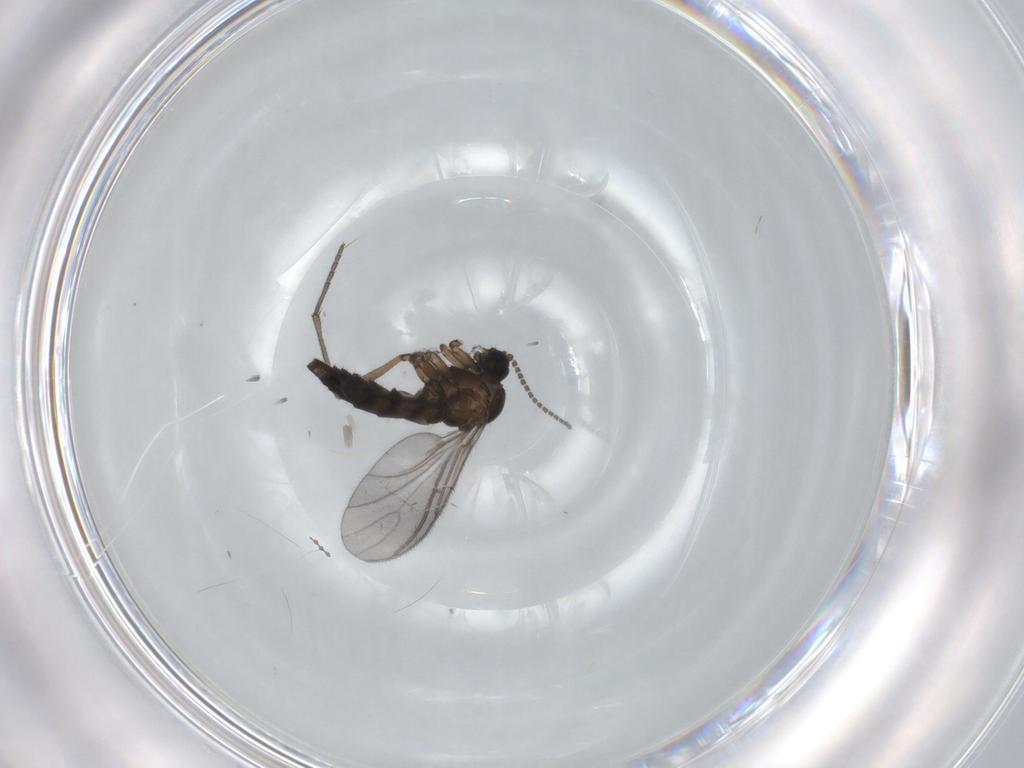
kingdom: Animalia
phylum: Arthropoda
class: Insecta
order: Diptera
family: Sciaridae
